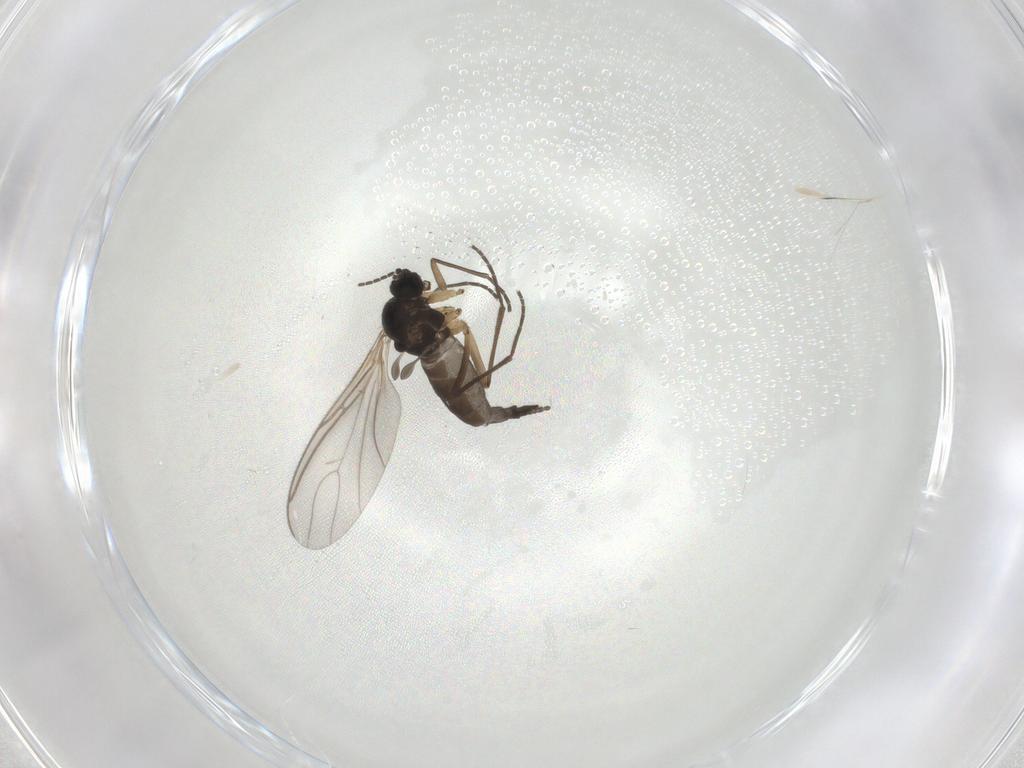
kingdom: Animalia
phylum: Arthropoda
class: Insecta
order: Diptera
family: Sciaridae
